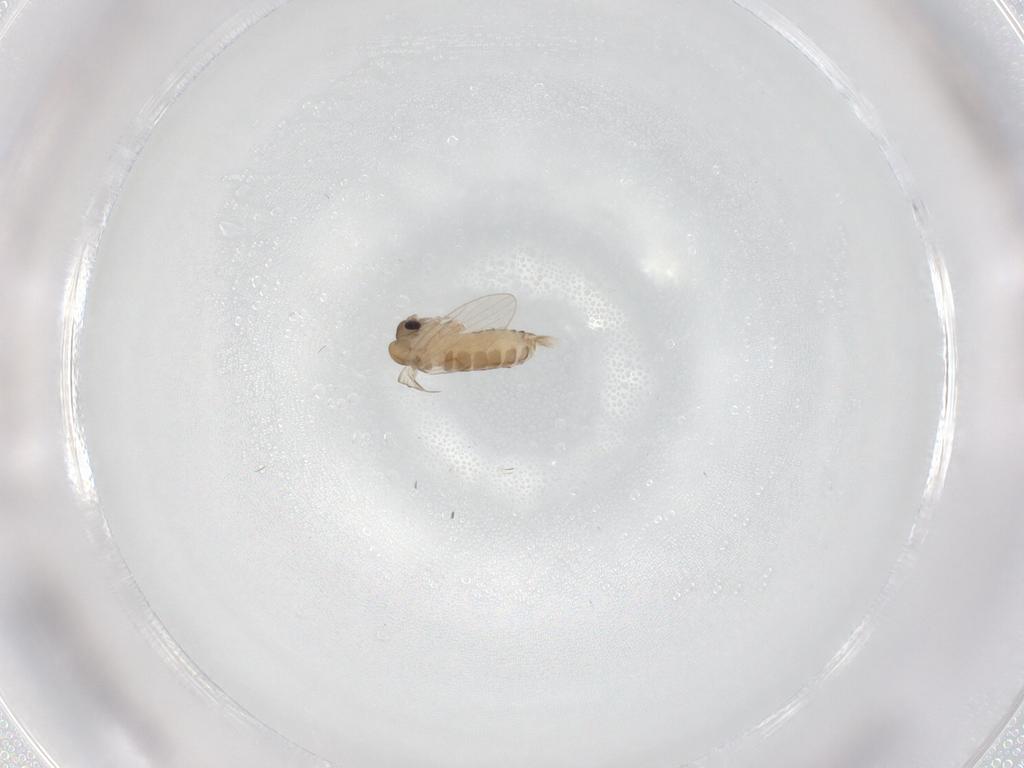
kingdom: Animalia
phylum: Arthropoda
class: Insecta
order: Diptera
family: Psychodidae
